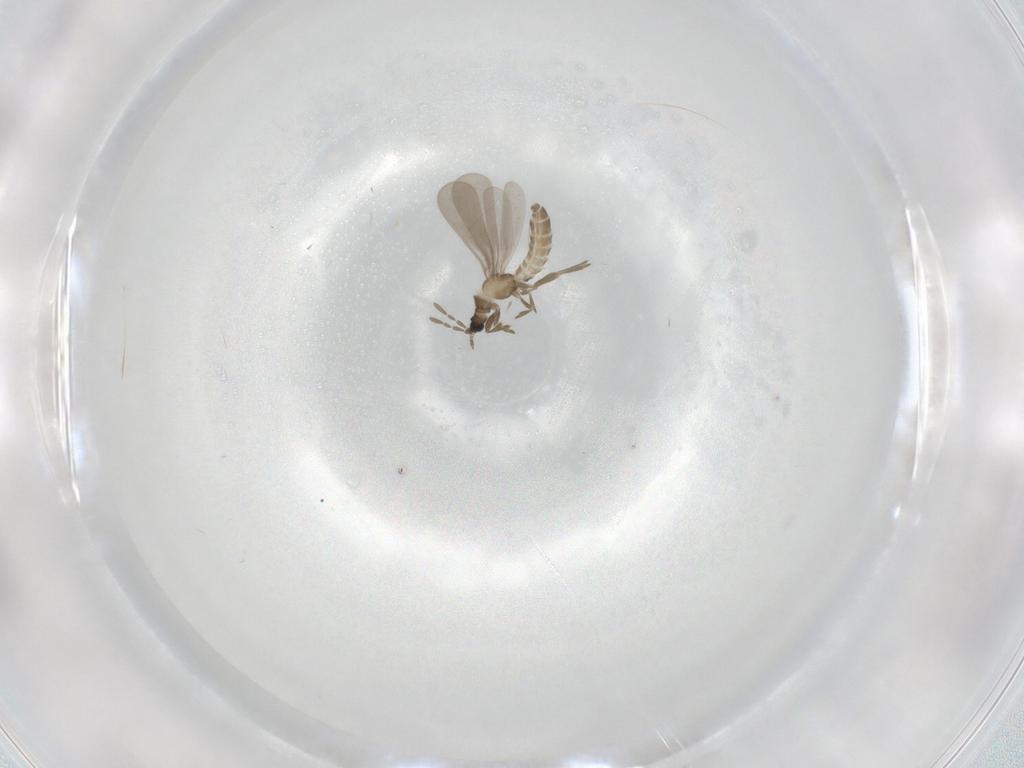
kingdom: Animalia
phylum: Arthropoda
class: Insecta
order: Hemiptera
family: Enicocephalidae
